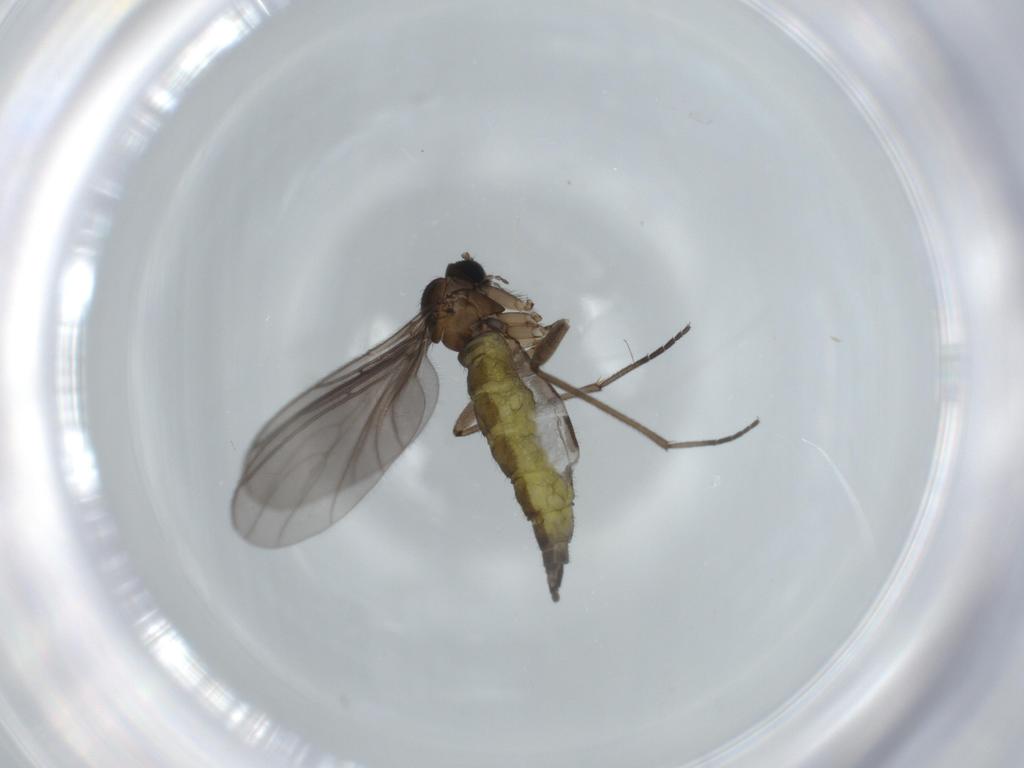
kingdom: Animalia
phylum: Arthropoda
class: Insecta
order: Diptera
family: Sciaridae
